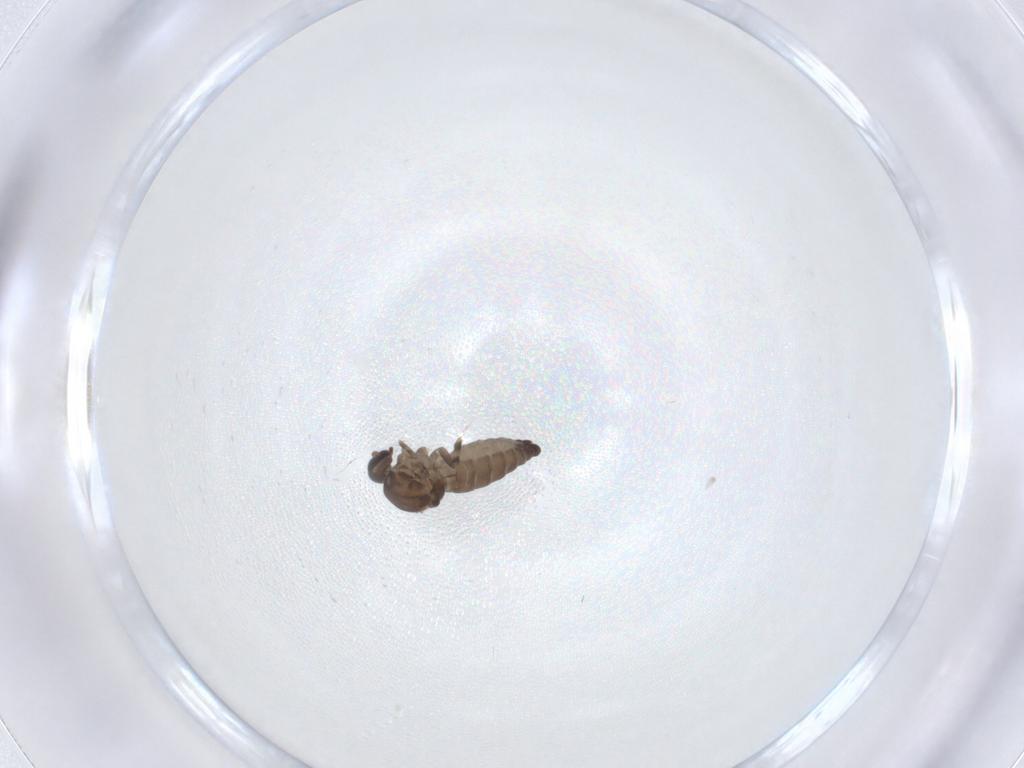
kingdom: Animalia
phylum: Arthropoda
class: Insecta
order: Diptera
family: Ceratopogonidae
